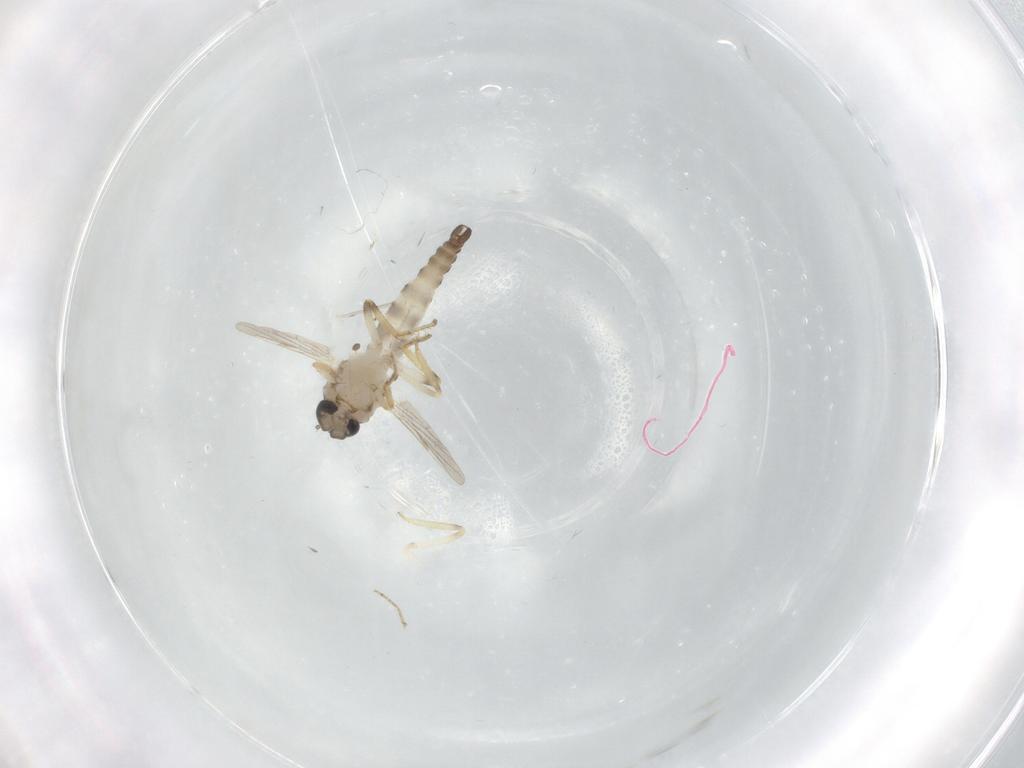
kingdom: Animalia
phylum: Arthropoda
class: Insecta
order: Diptera
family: Cecidomyiidae
